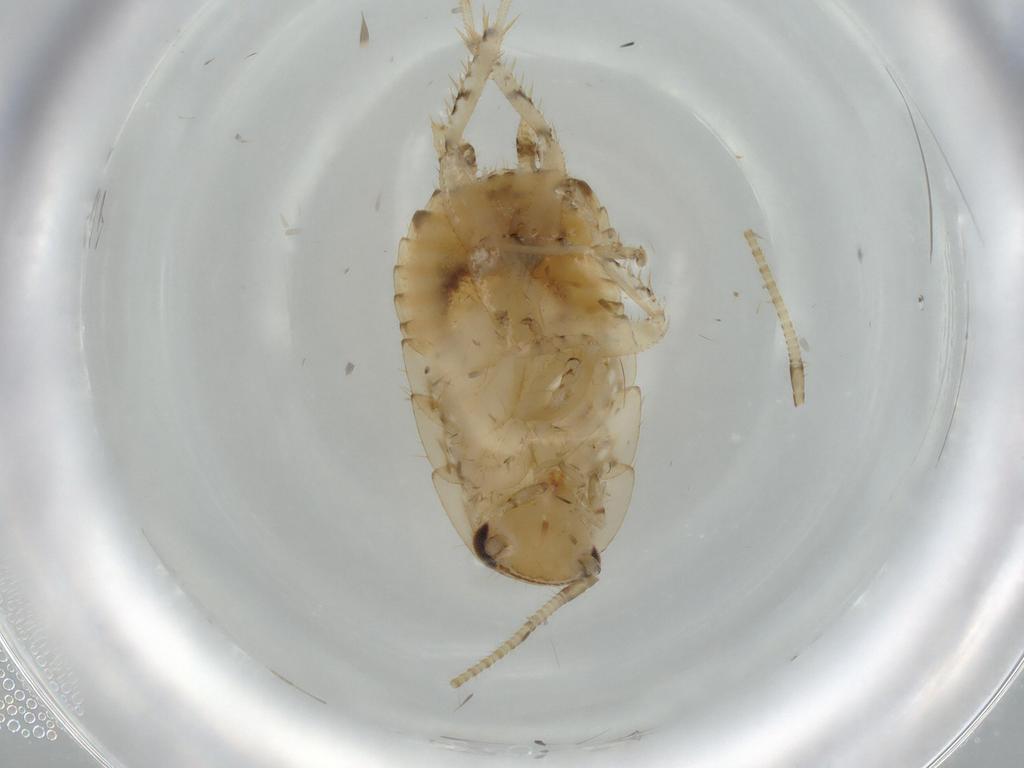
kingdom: Animalia
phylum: Arthropoda
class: Insecta
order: Blattodea
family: Ectobiidae
